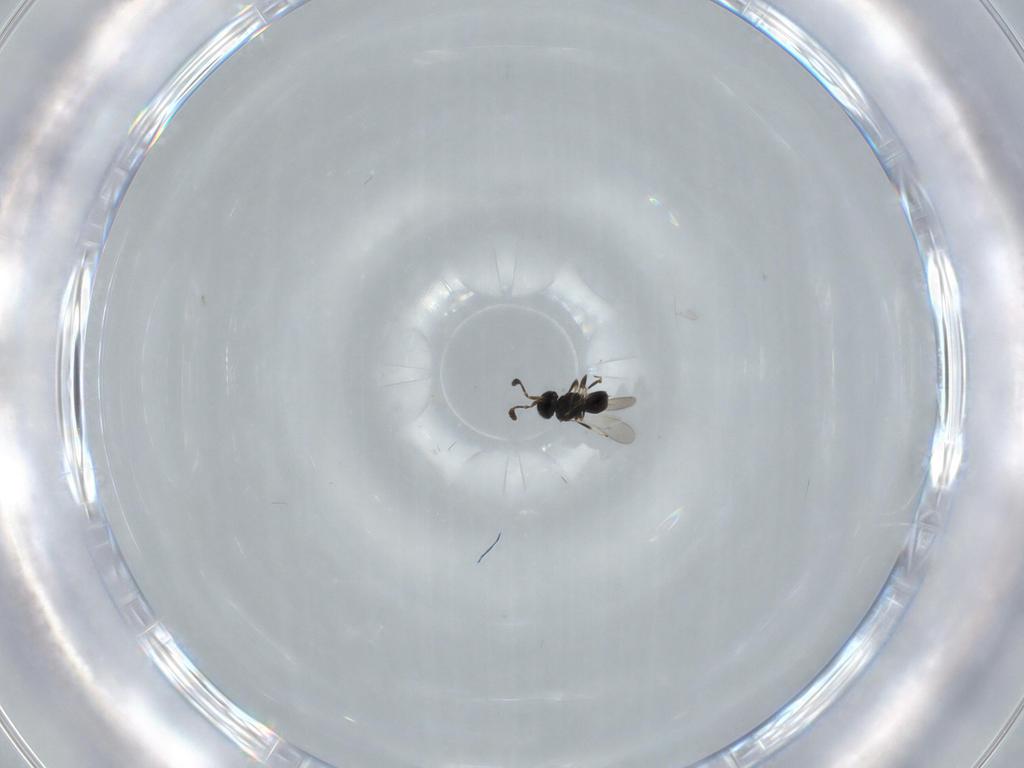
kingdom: Animalia
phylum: Arthropoda
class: Insecta
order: Hymenoptera
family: Scelionidae
